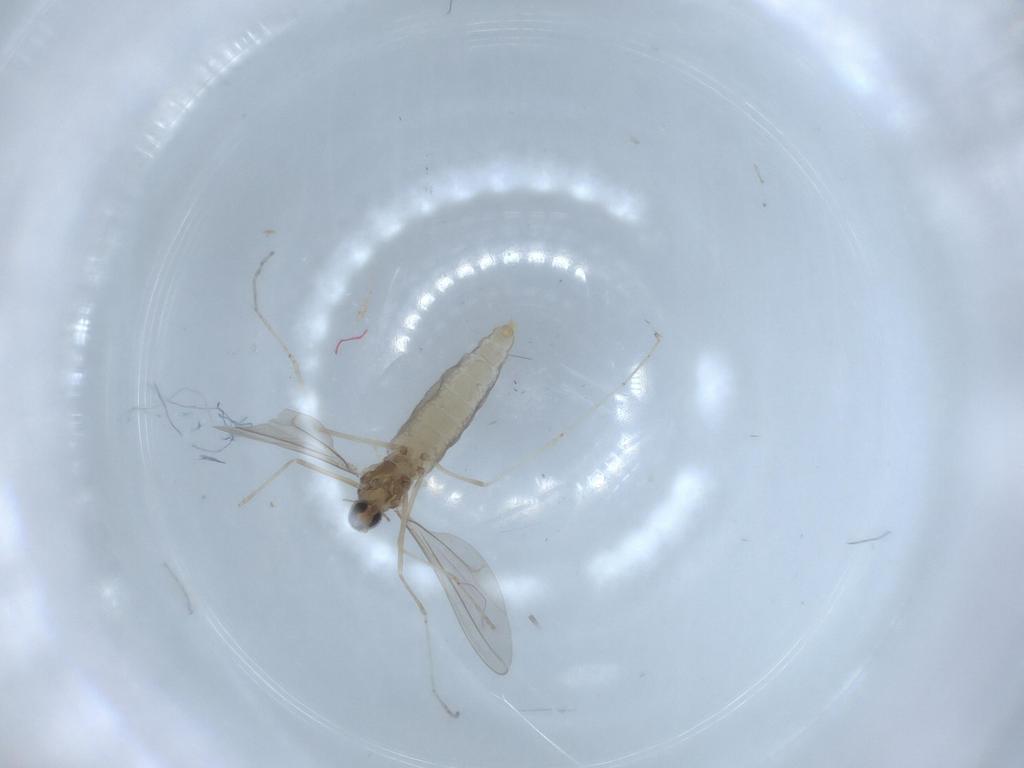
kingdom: Animalia
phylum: Arthropoda
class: Insecta
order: Diptera
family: Cecidomyiidae
